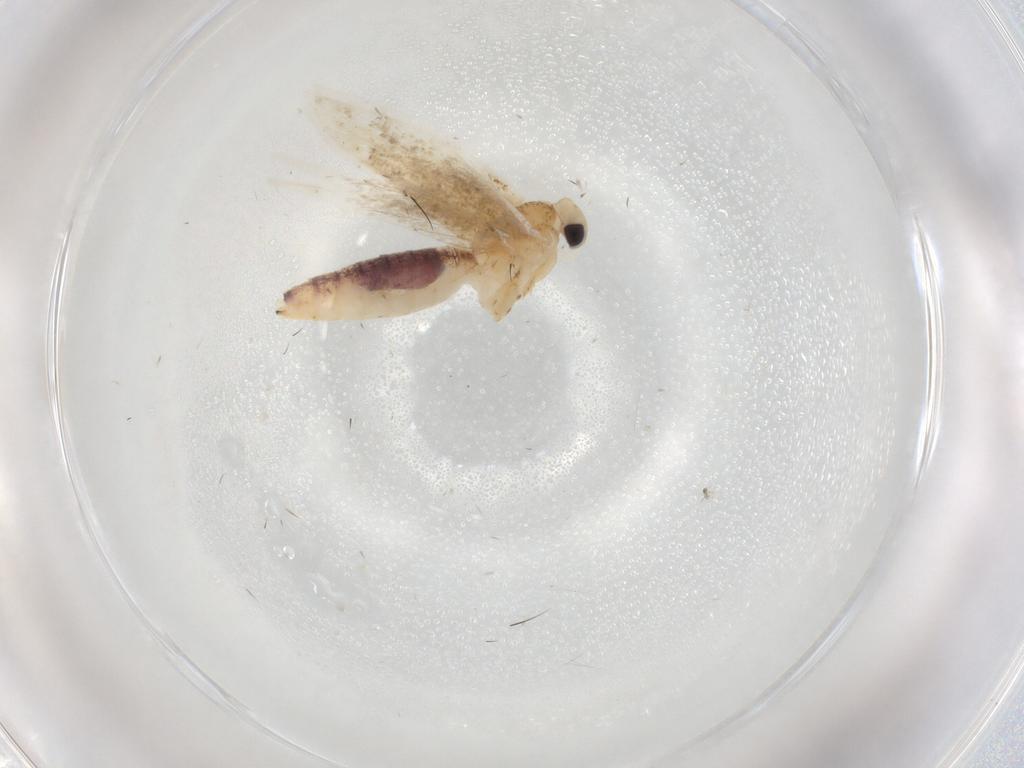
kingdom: Animalia
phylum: Arthropoda
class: Insecta
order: Lepidoptera
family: Bucculatricidae
